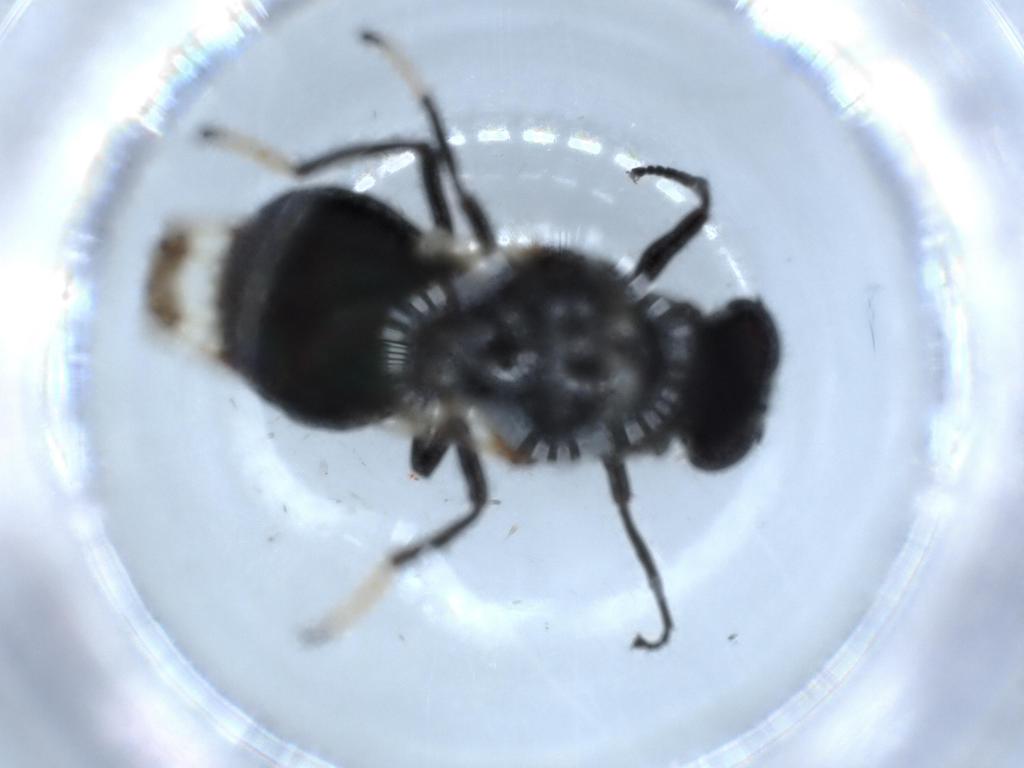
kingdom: Animalia
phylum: Arthropoda
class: Insecta
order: Diptera
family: Stratiomyidae
